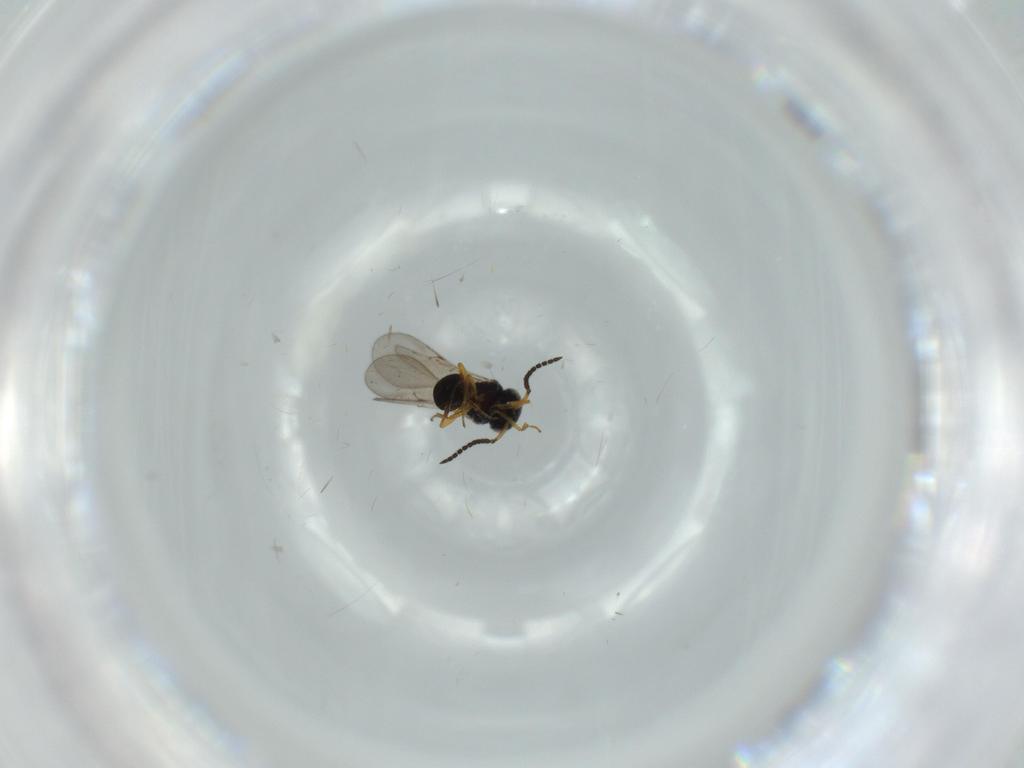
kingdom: Animalia
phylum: Arthropoda
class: Insecta
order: Hymenoptera
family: Scelionidae
